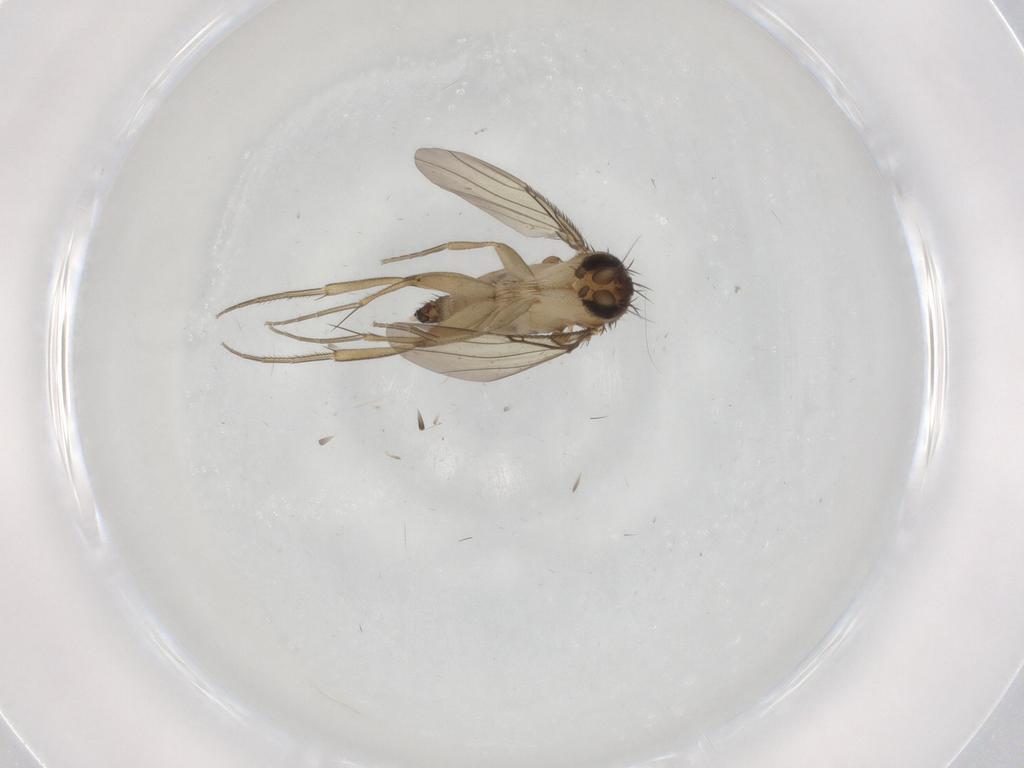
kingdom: Animalia
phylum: Arthropoda
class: Insecta
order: Diptera
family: Phoridae
